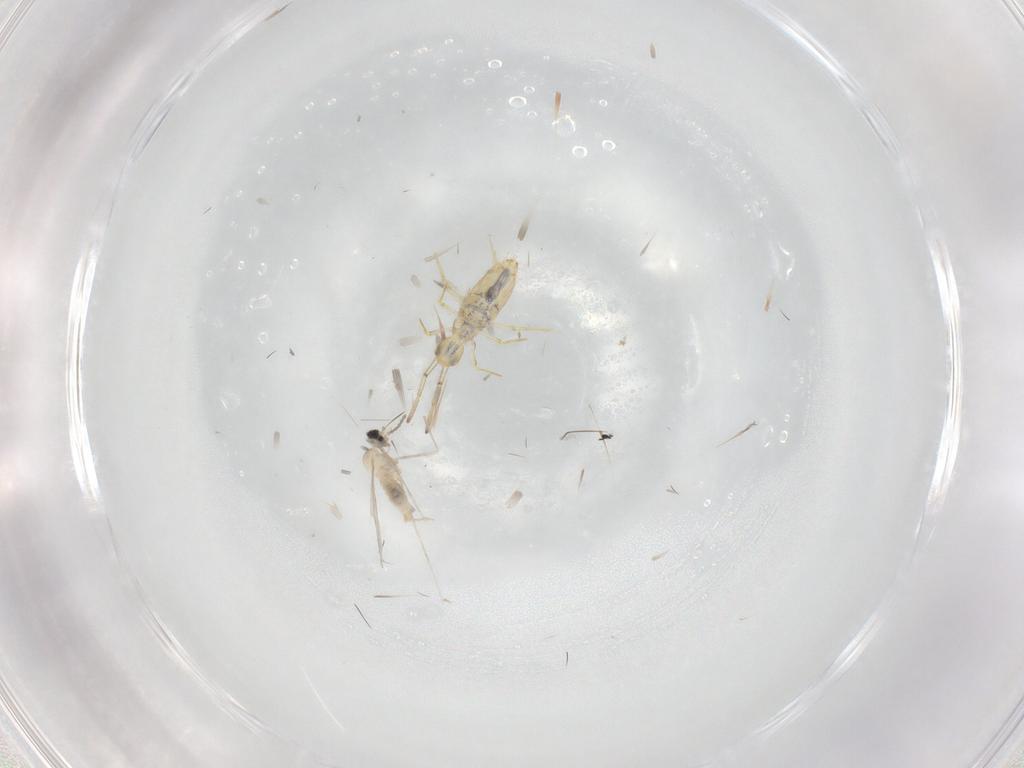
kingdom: Animalia
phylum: Arthropoda
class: Insecta
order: Diptera
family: Cecidomyiidae
